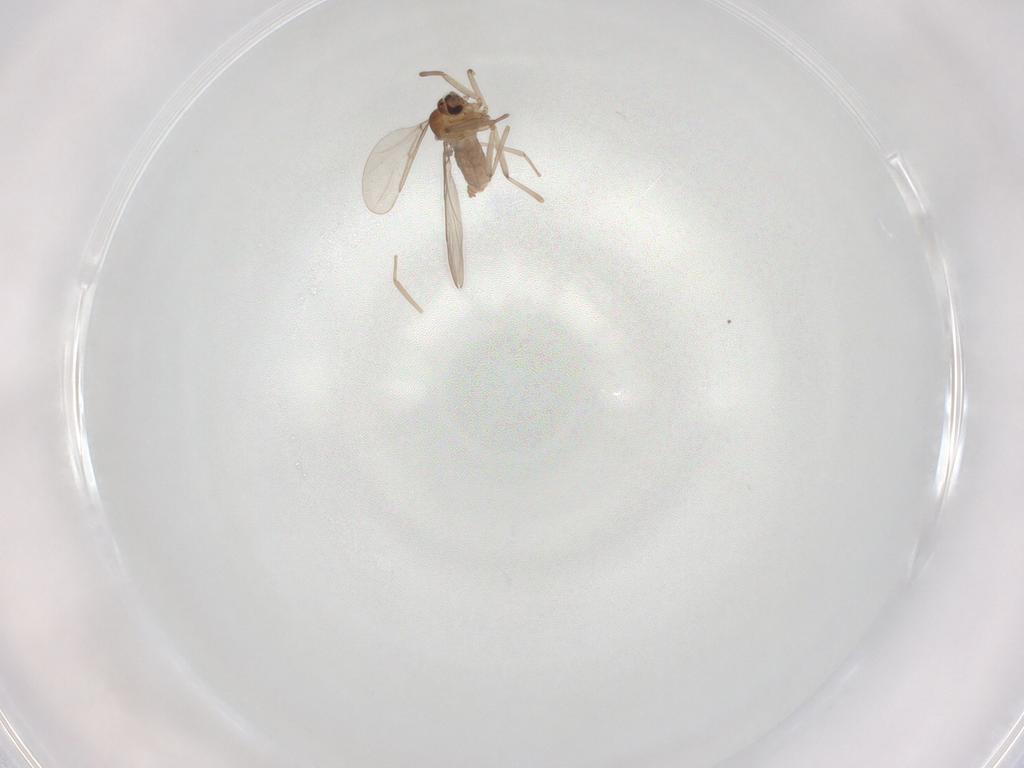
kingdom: Animalia
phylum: Arthropoda
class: Insecta
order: Diptera
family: Cecidomyiidae
